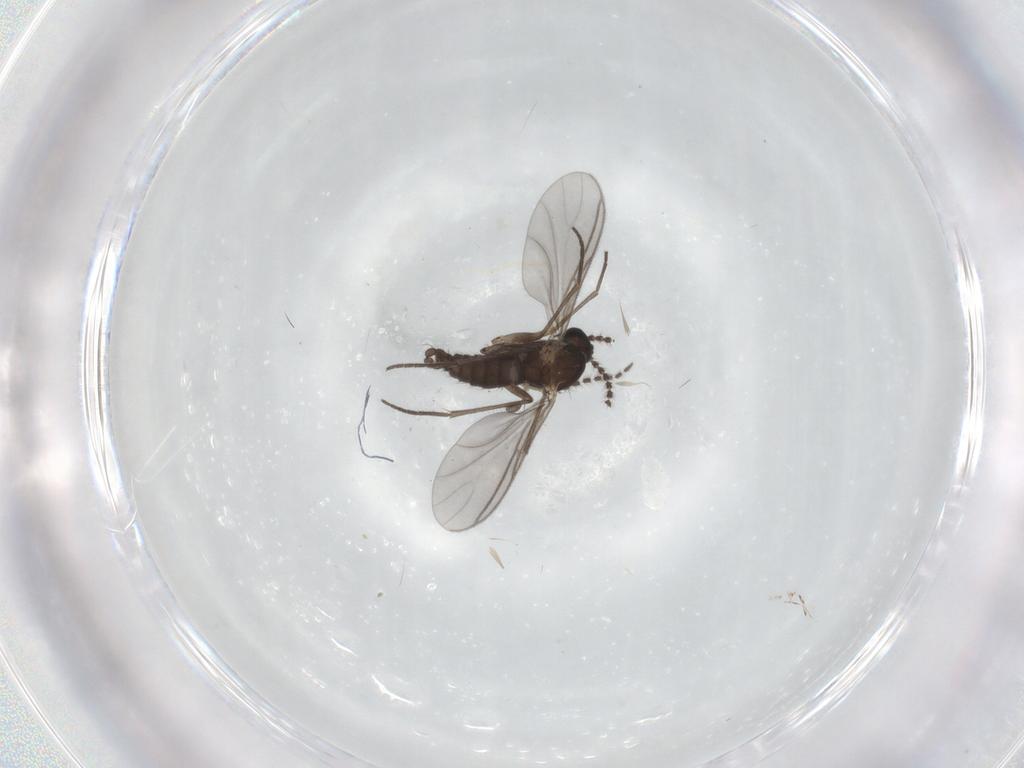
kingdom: Animalia
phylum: Arthropoda
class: Insecta
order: Diptera
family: Sciaridae
